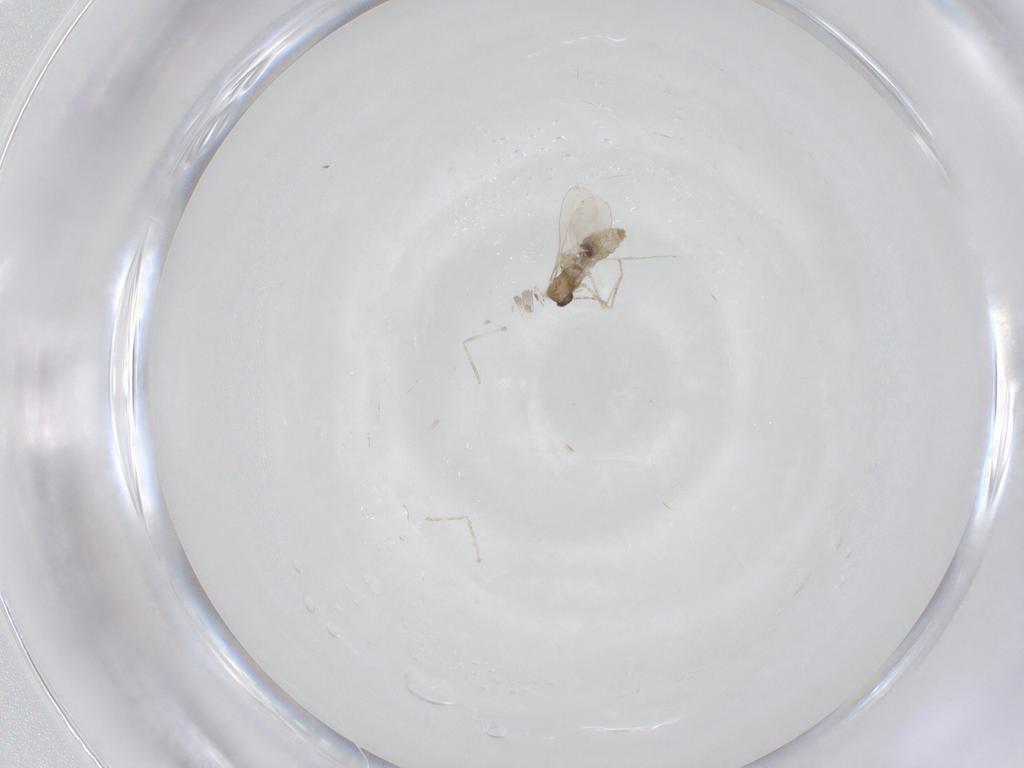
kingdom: Animalia
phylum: Arthropoda
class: Insecta
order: Diptera
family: Cecidomyiidae
